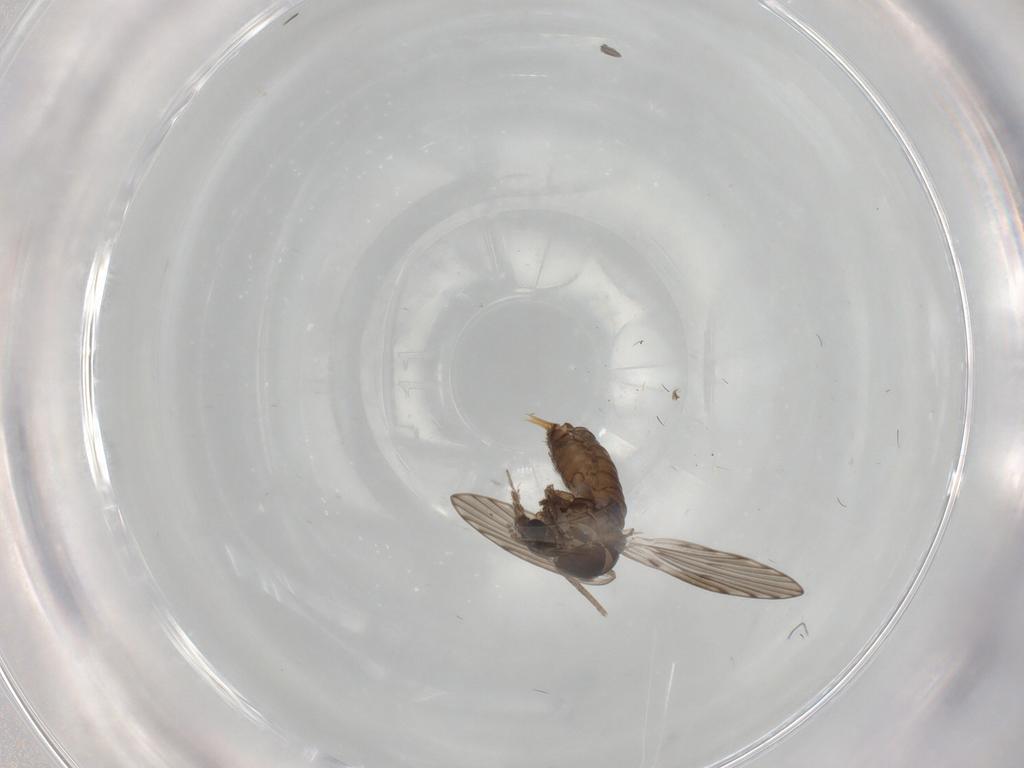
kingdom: Animalia
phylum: Arthropoda
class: Insecta
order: Diptera
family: Psychodidae
